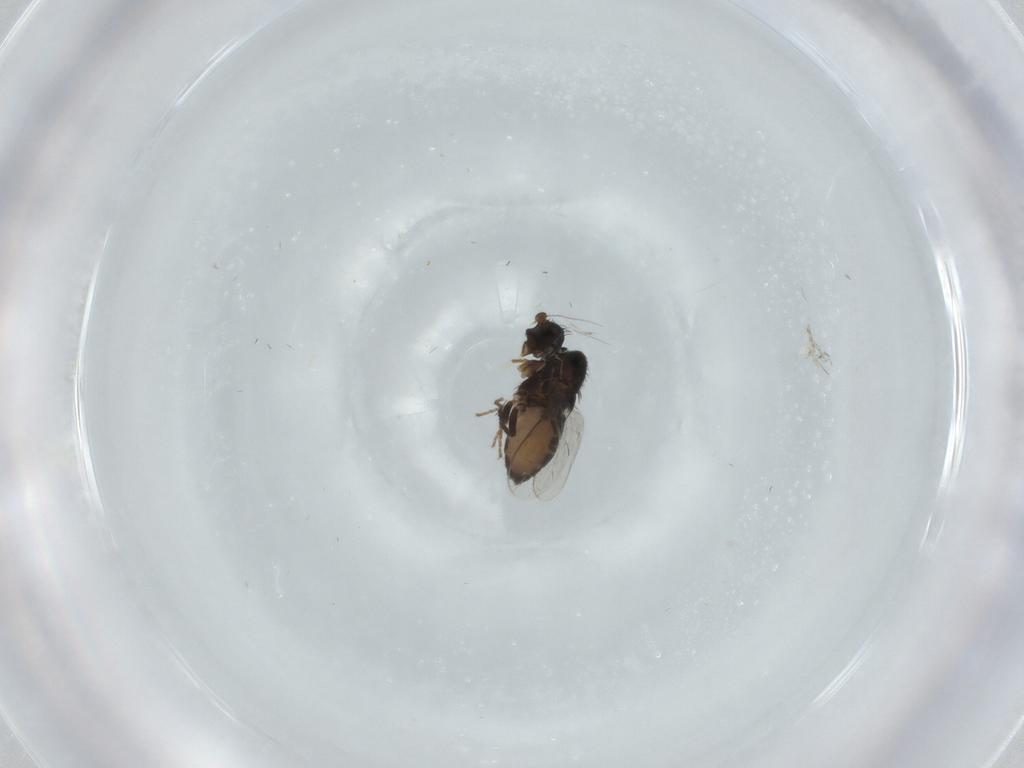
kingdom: Animalia
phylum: Arthropoda
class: Insecta
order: Diptera
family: Sphaeroceridae
